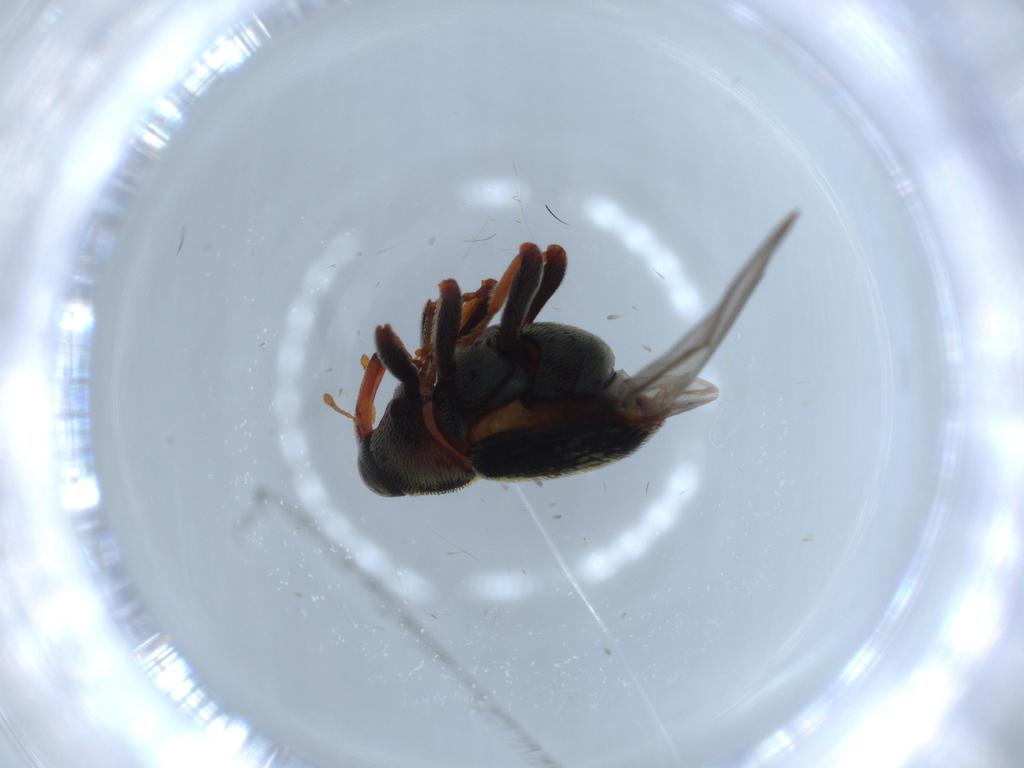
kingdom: Animalia
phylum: Arthropoda
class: Insecta
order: Coleoptera
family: Curculionidae
